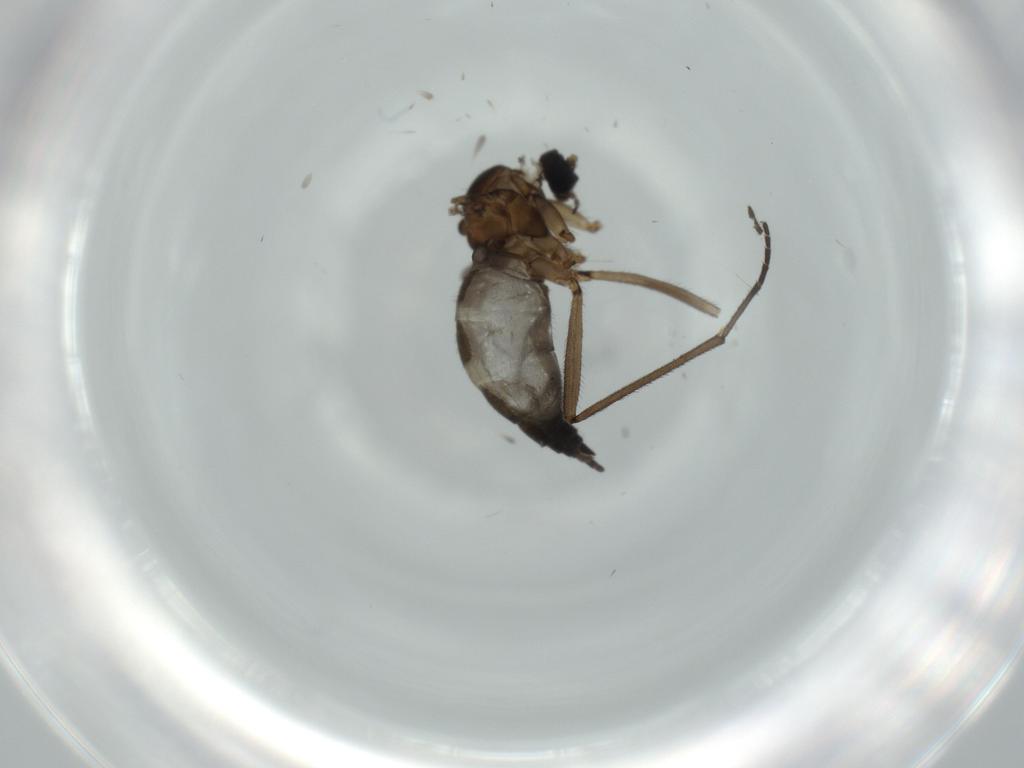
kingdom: Animalia
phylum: Arthropoda
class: Insecta
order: Diptera
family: Sciaridae
